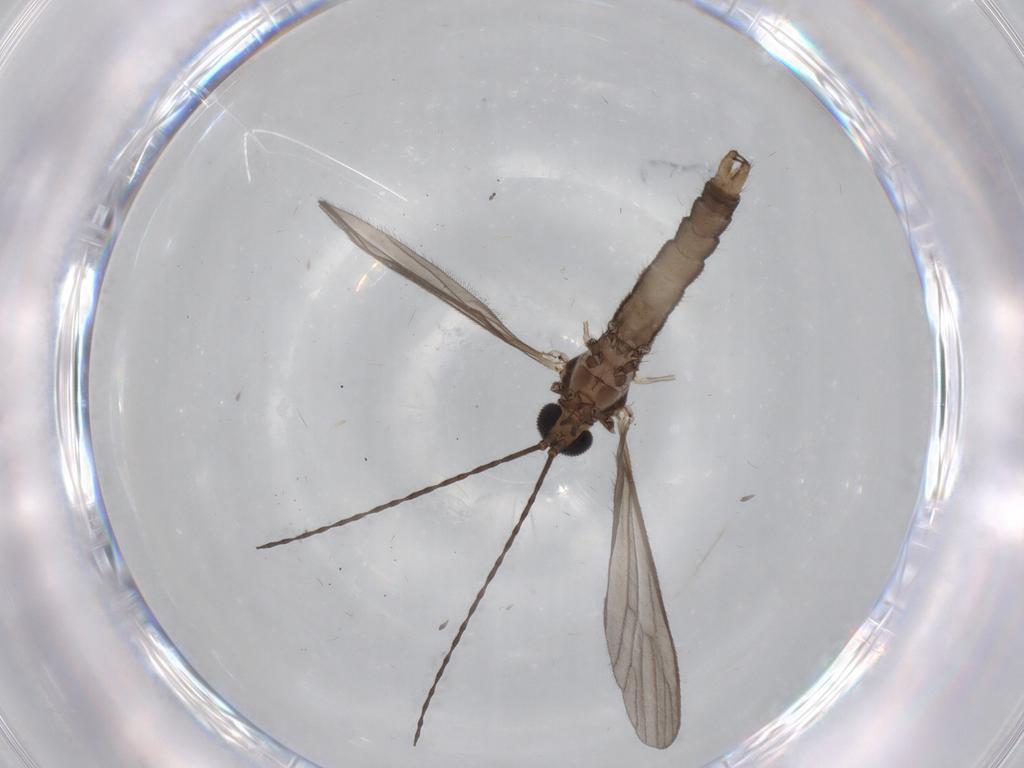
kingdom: Animalia
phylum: Arthropoda
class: Insecta
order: Diptera
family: Chironomidae
